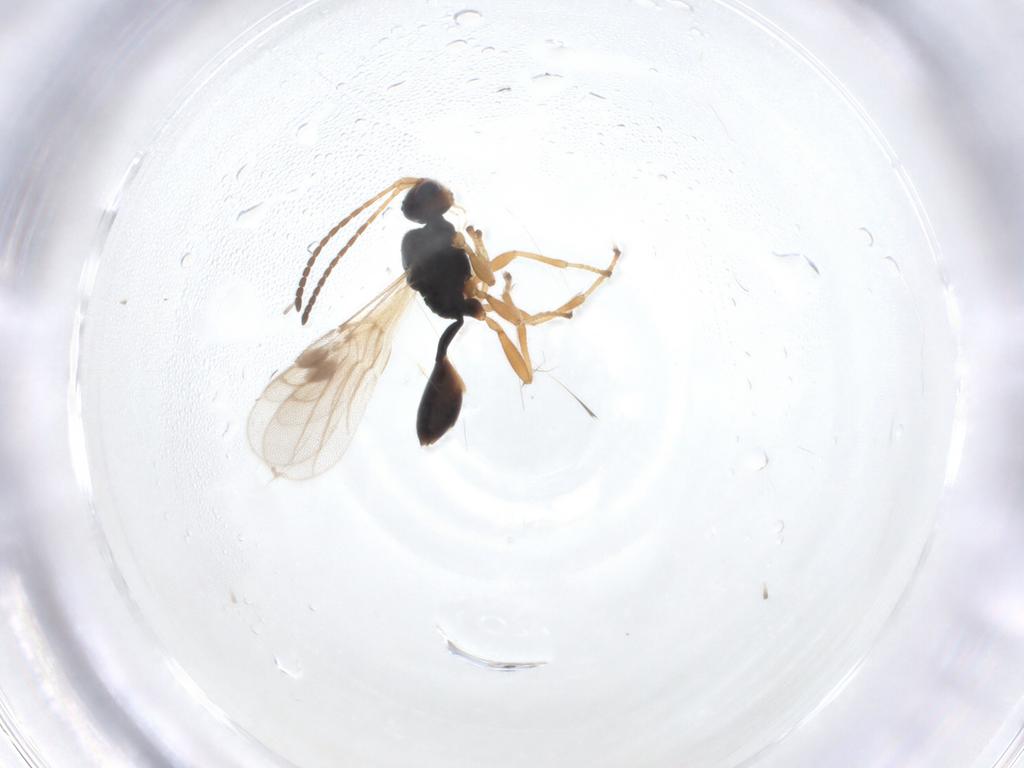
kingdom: Animalia
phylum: Arthropoda
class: Insecta
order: Hymenoptera
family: Braconidae
